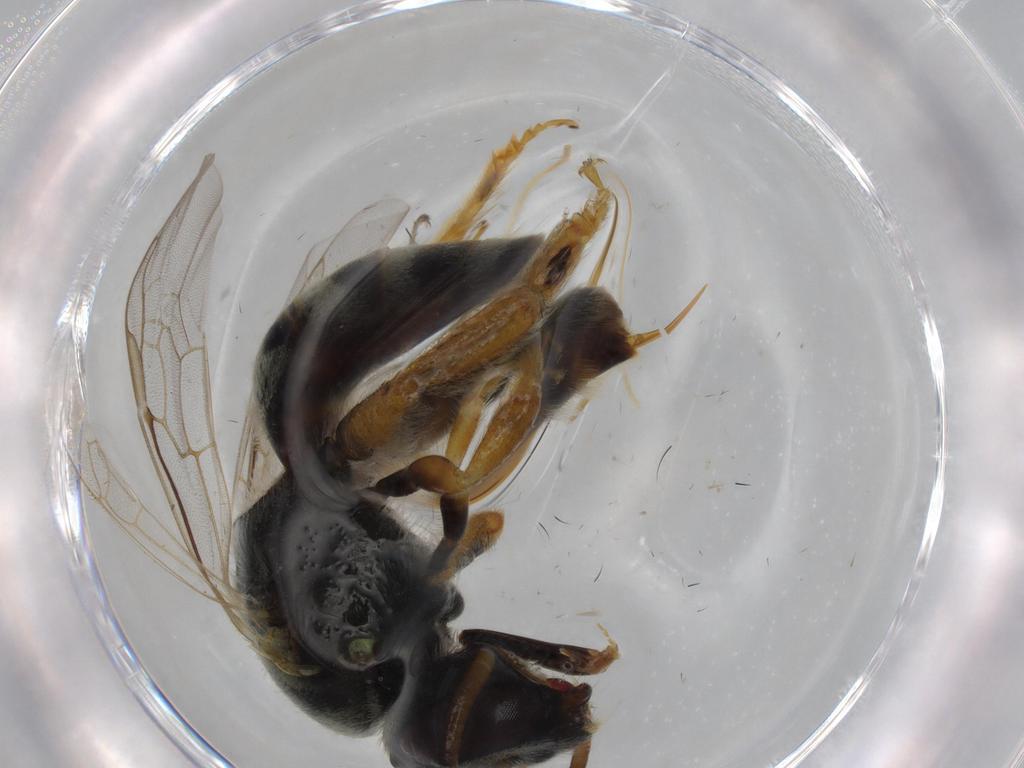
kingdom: Animalia
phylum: Arthropoda
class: Insecta
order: Hymenoptera
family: Halictidae
